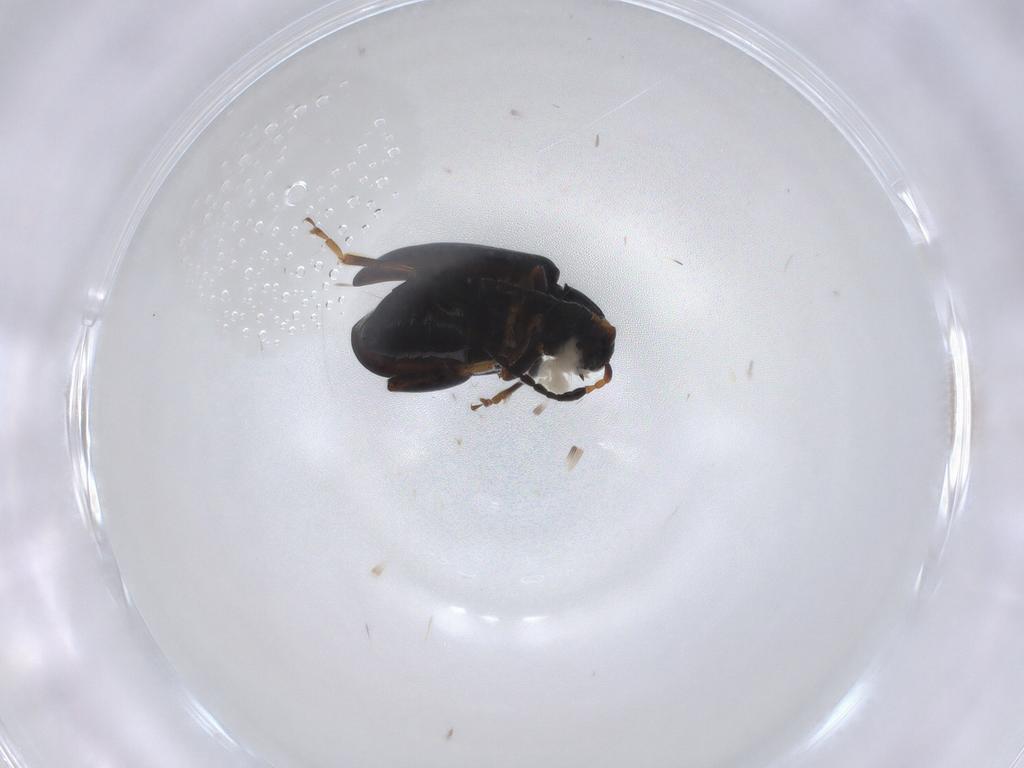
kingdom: Animalia
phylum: Arthropoda
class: Insecta
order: Coleoptera
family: Chrysomelidae
